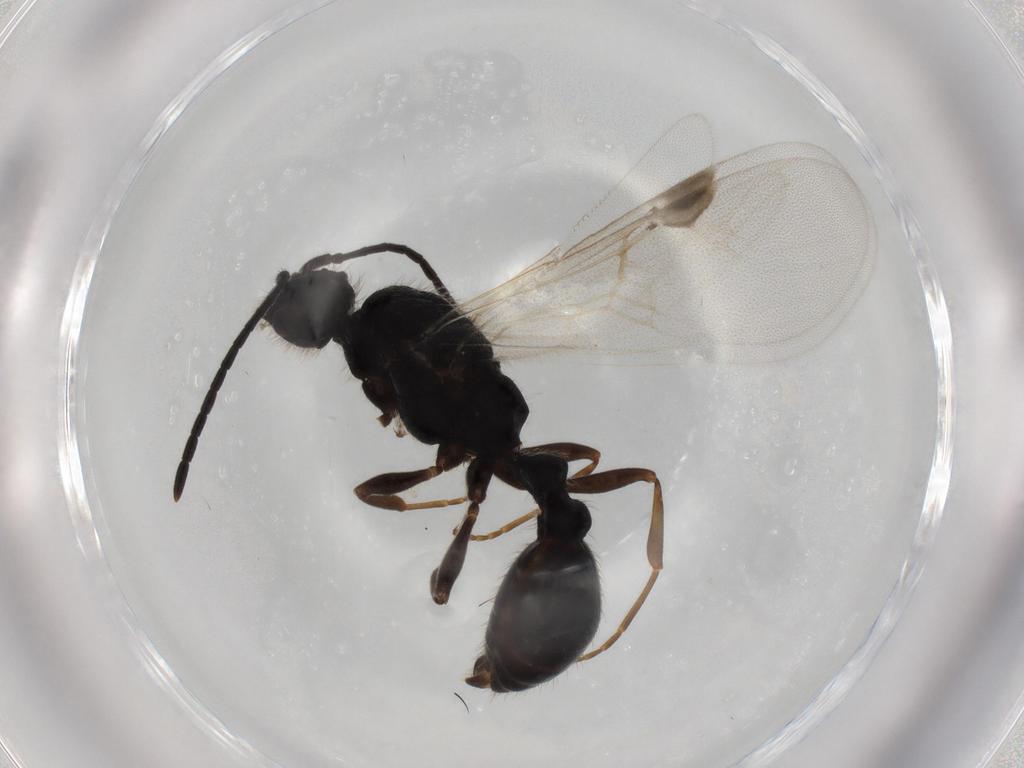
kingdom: Animalia
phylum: Arthropoda
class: Insecta
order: Hymenoptera
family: Formicidae
